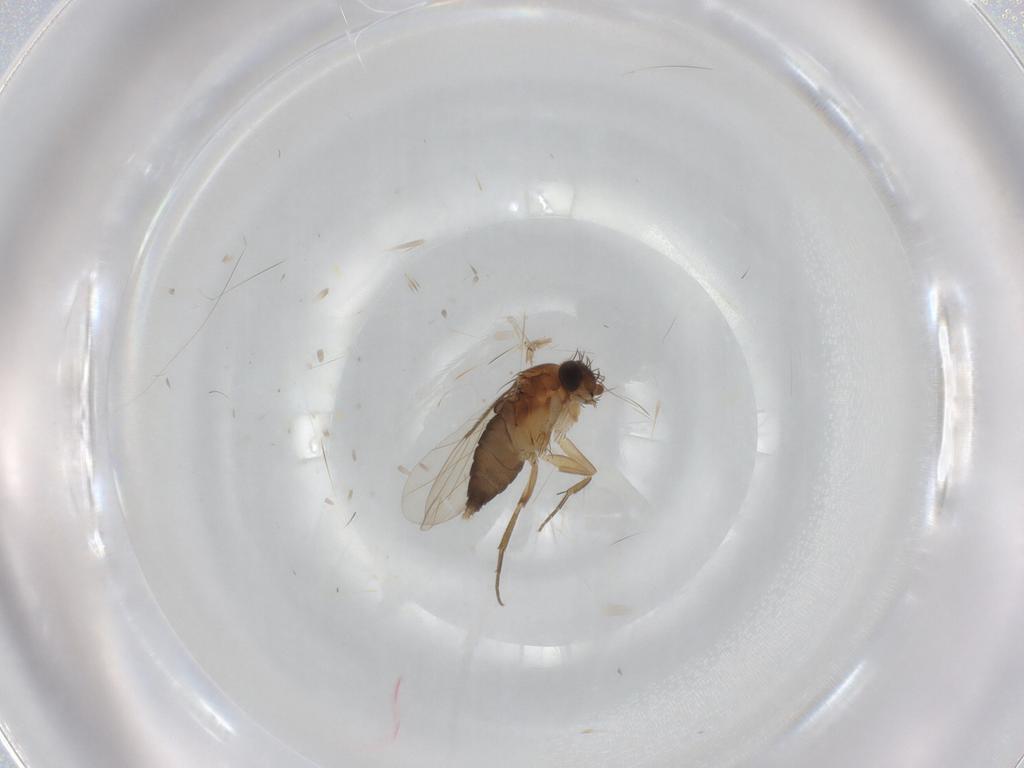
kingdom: Animalia
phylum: Arthropoda
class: Insecta
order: Diptera
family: Phoridae
